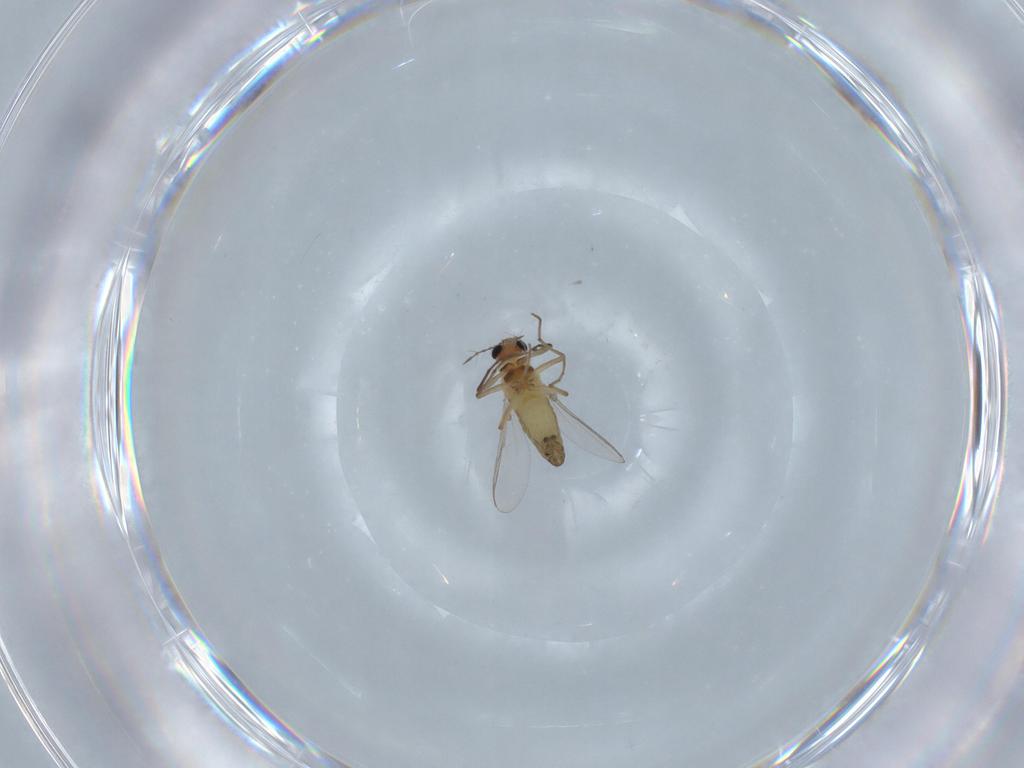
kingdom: Animalia
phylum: Arthropoda
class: Insecta
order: Diptera
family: Chironomidae
